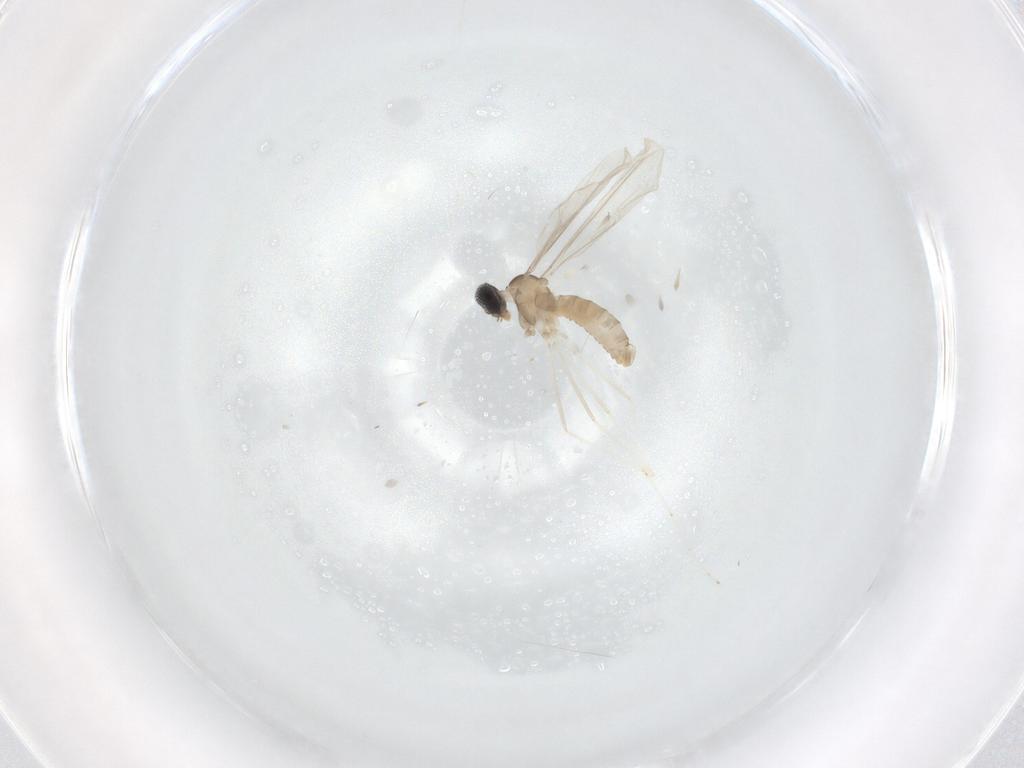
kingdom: Animalia
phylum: Arthropoda
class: Insecta
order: Diptera
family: Cecidomyiidae
